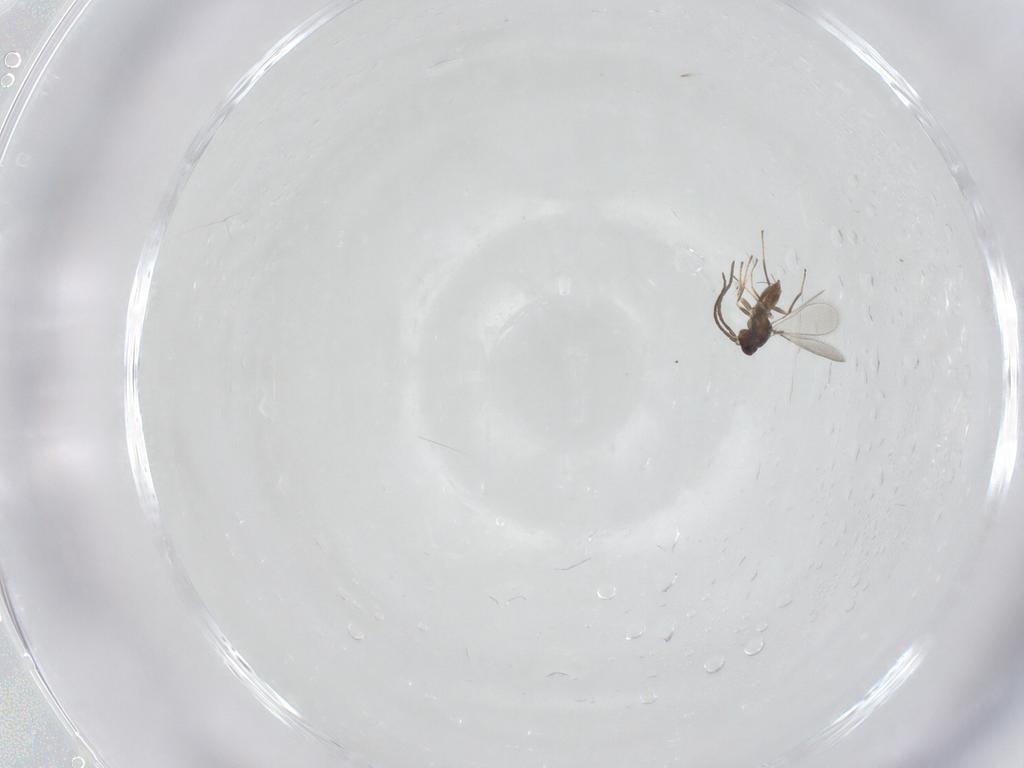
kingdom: Animalia
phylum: Arthropoda
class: Insecta
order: Hymenoptera
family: Mymaridae
